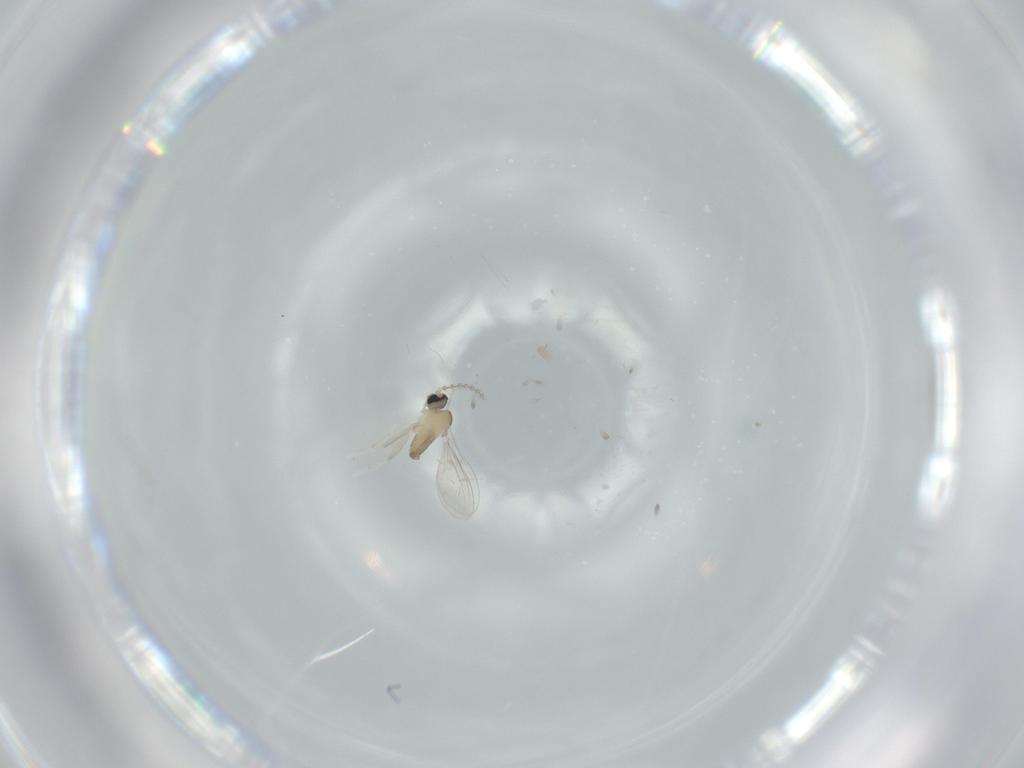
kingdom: Animalia
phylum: Arthropoda
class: Insecta
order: Diptera
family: Cecidomyiidae
